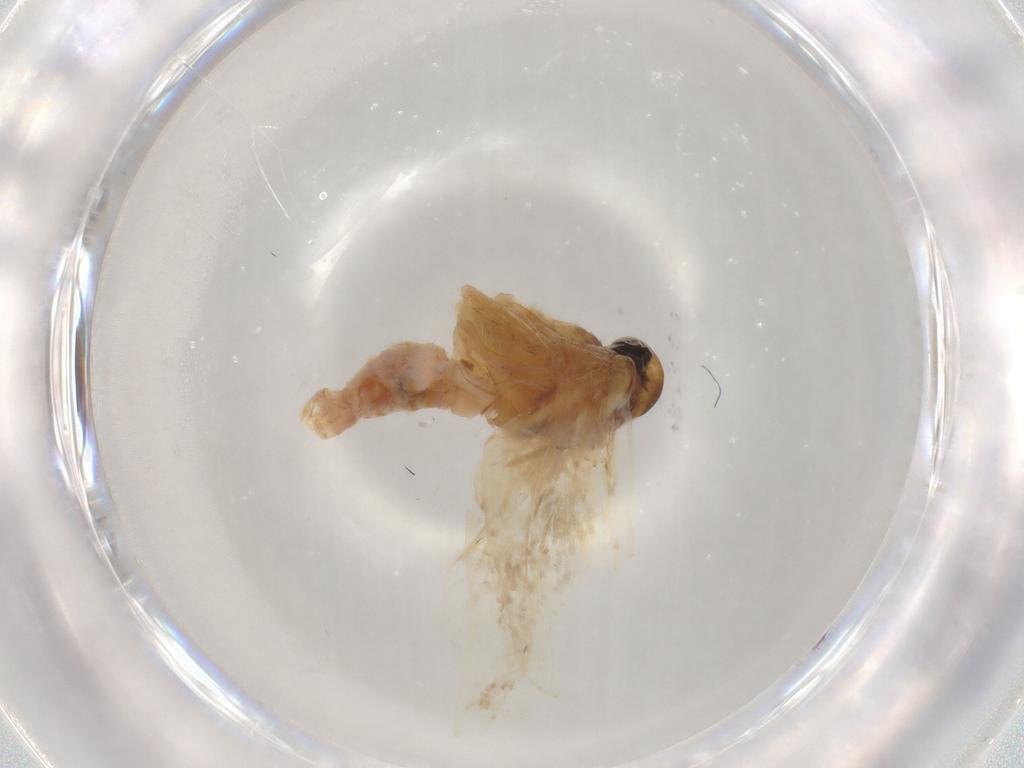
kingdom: Animalia
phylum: Arthropoda
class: Insecta
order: Lepidoptera
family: Crambidae
